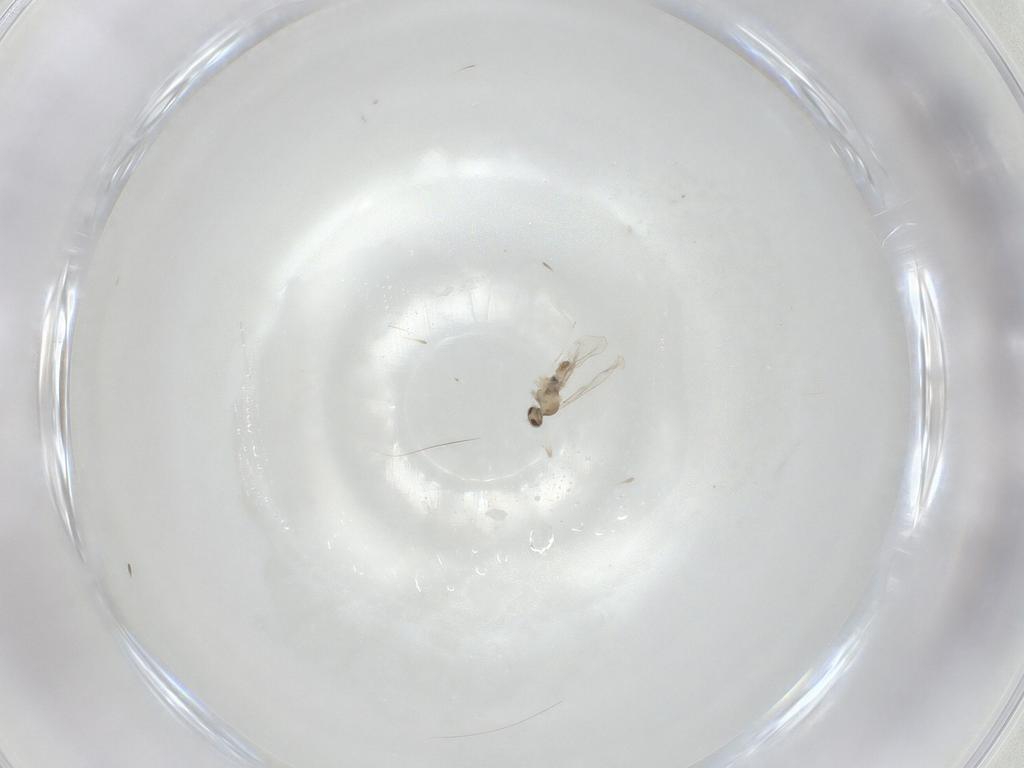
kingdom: Animalia
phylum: Arthropoda
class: Insecta
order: Diptera
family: Cecidomyiidae
